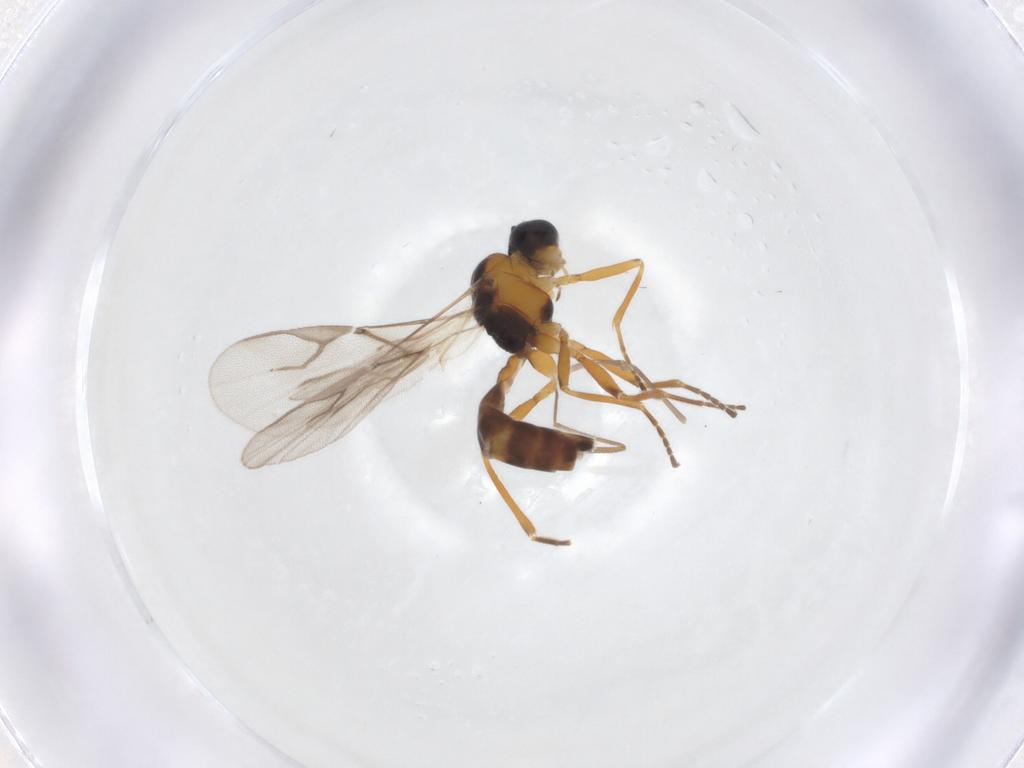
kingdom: Animalia
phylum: Arthropoda
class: Insecta
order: Hymenoptera
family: Braconidae
